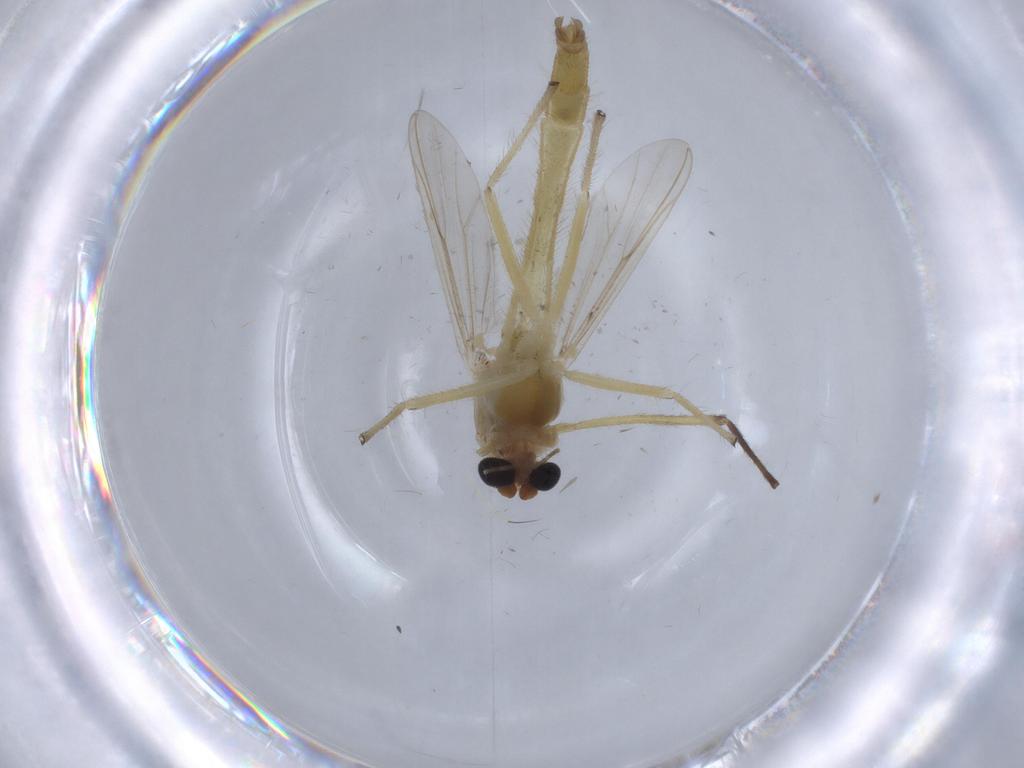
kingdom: Animalia
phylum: Arthropoda
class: Insecta
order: Diptera
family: Chironomidae
